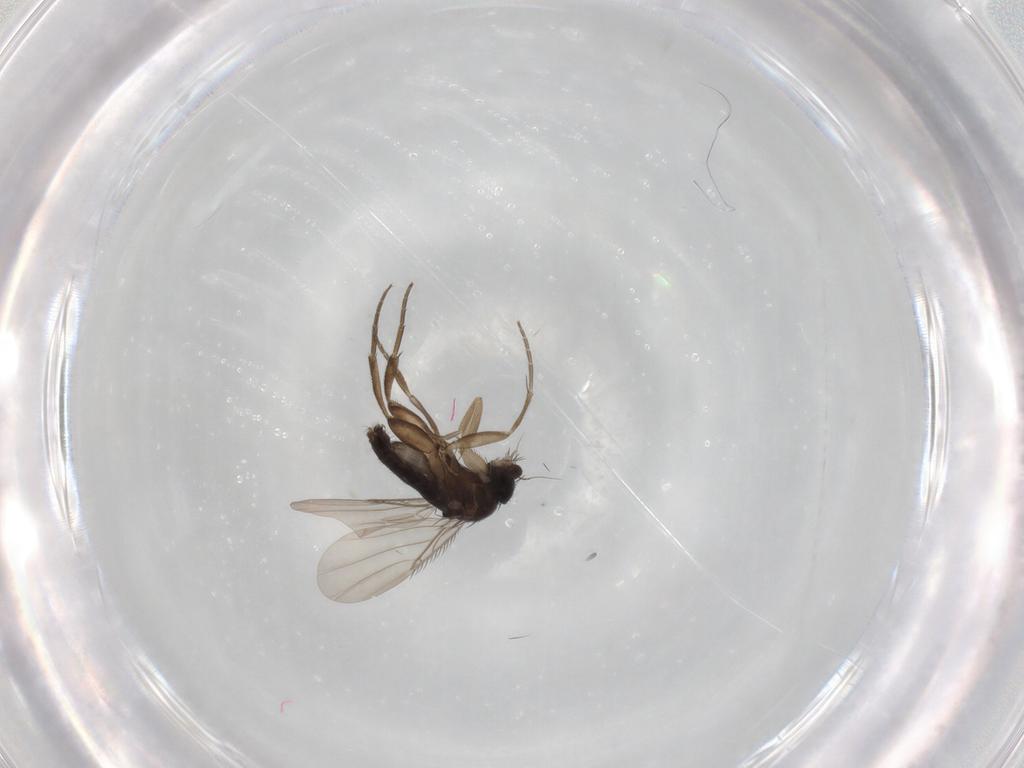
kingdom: Animalia
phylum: Arthropoda
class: Insecta
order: Diptera
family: Phoridae
